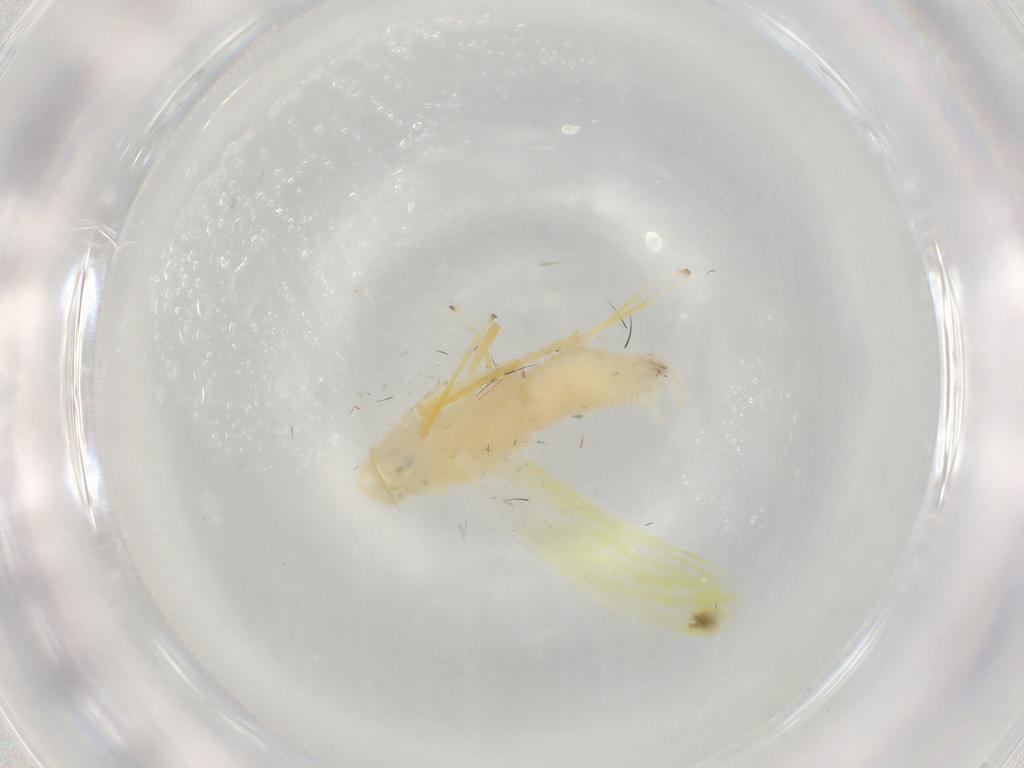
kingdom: Animalia
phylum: Arthropoda
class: Insecta
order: Hemiptera
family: Cicadellidae
